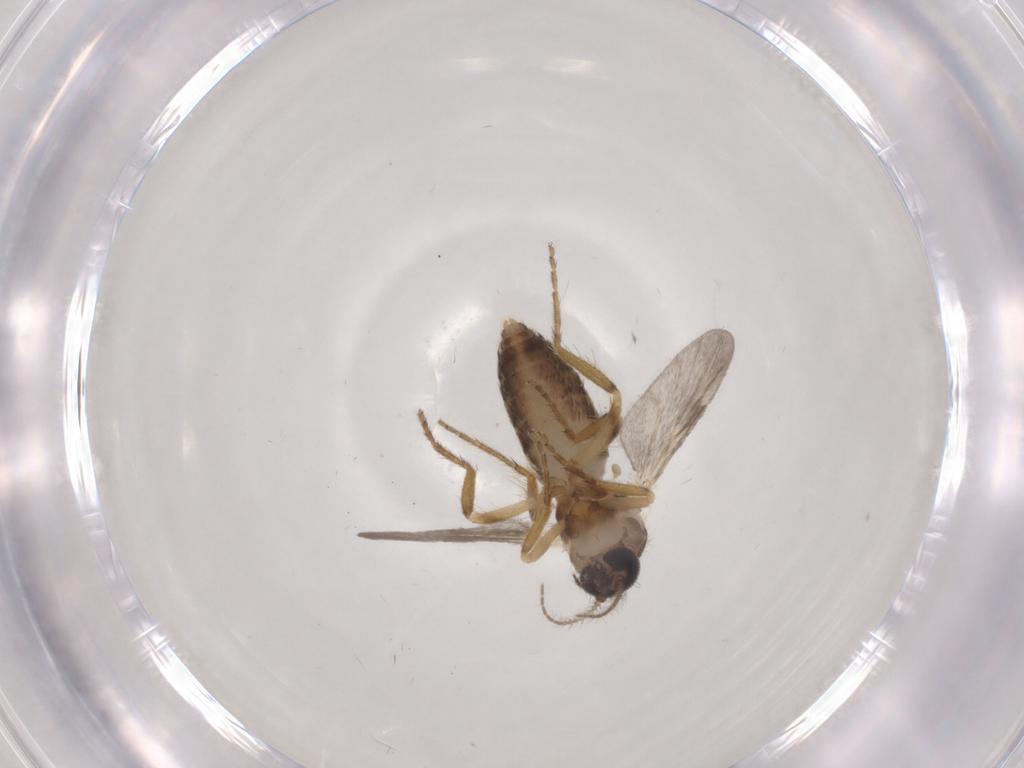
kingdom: Animalia
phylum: Arthropoda
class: Insecta
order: Diptera
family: Ceratopogonidae
